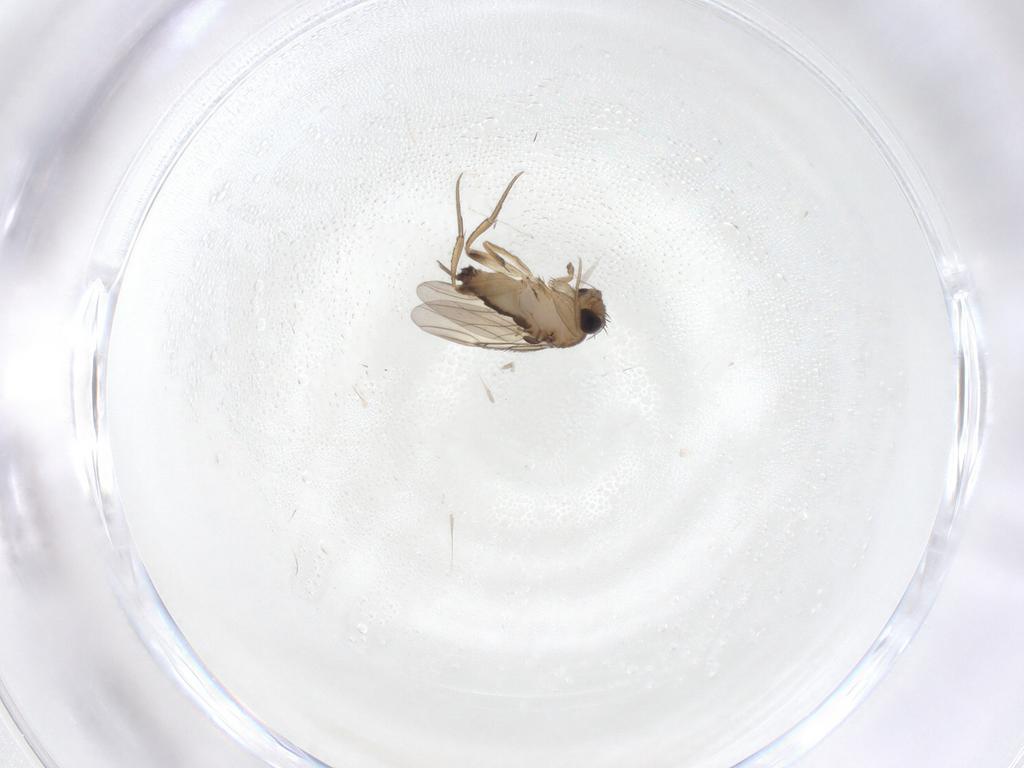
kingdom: Animalia
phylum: Arthropoda
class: Insecta
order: Diptera
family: Phoridae
